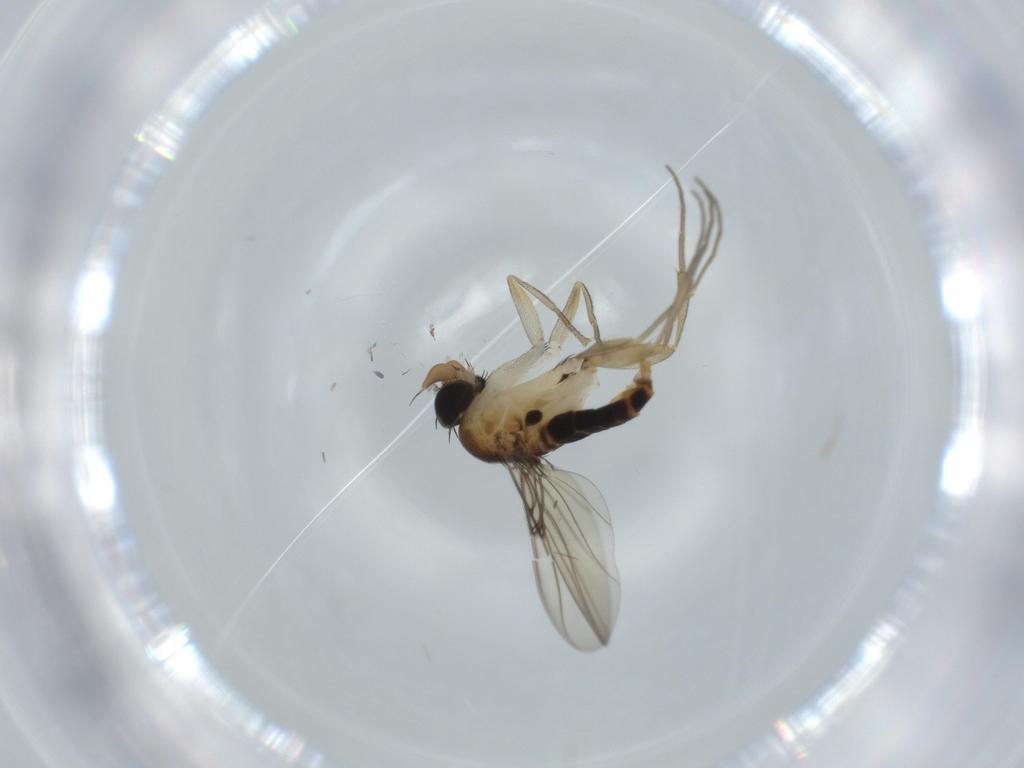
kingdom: Animalia
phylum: Arthropoda
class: Insecta
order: Diptera
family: Phoridae
